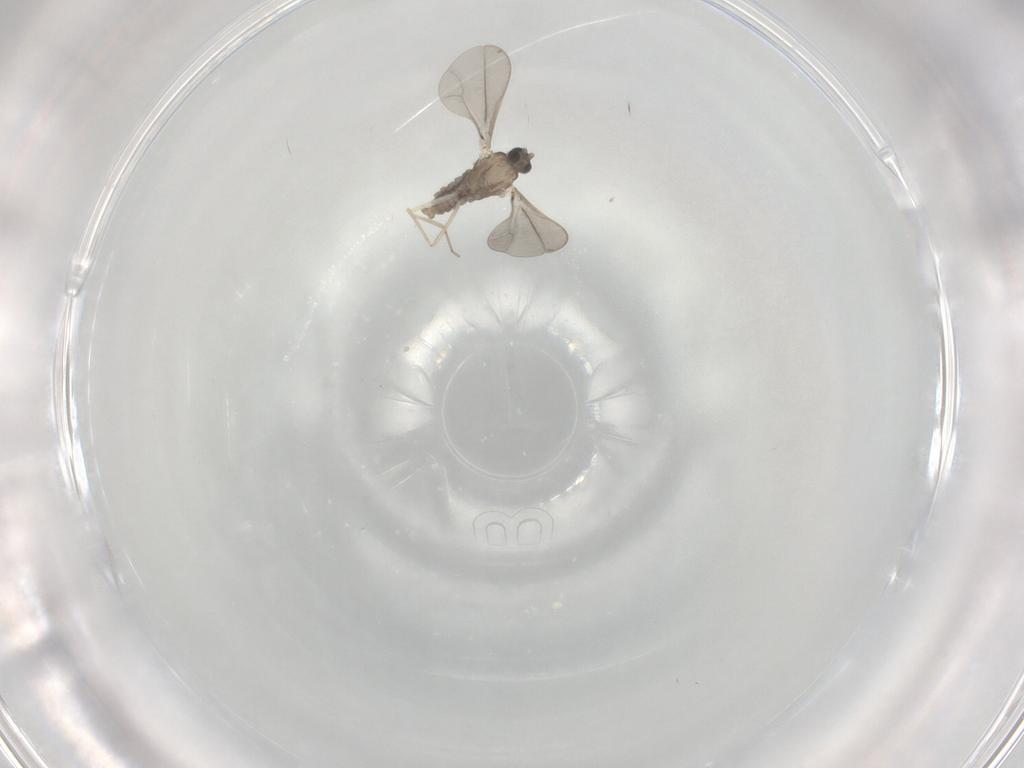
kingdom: Animalia
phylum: Arthropoda
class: Insecta
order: Diptera
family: Cecidomyiidae
